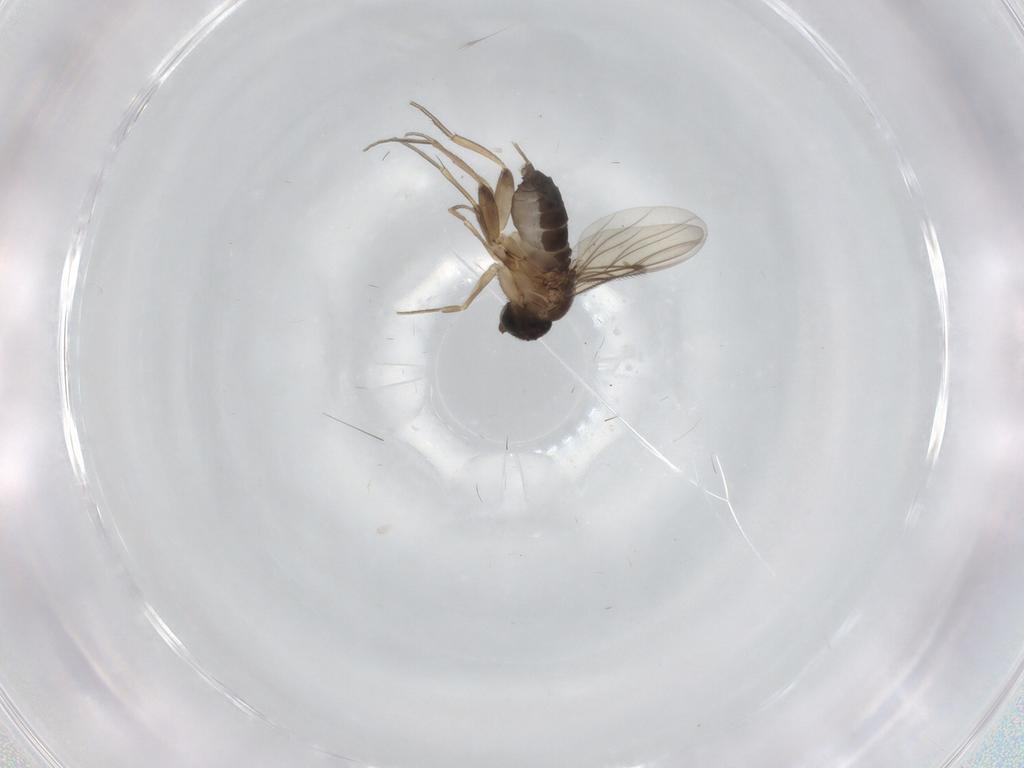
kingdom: Animalia
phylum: Arthropoda
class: Insecta
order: Diptera
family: Phoridae
